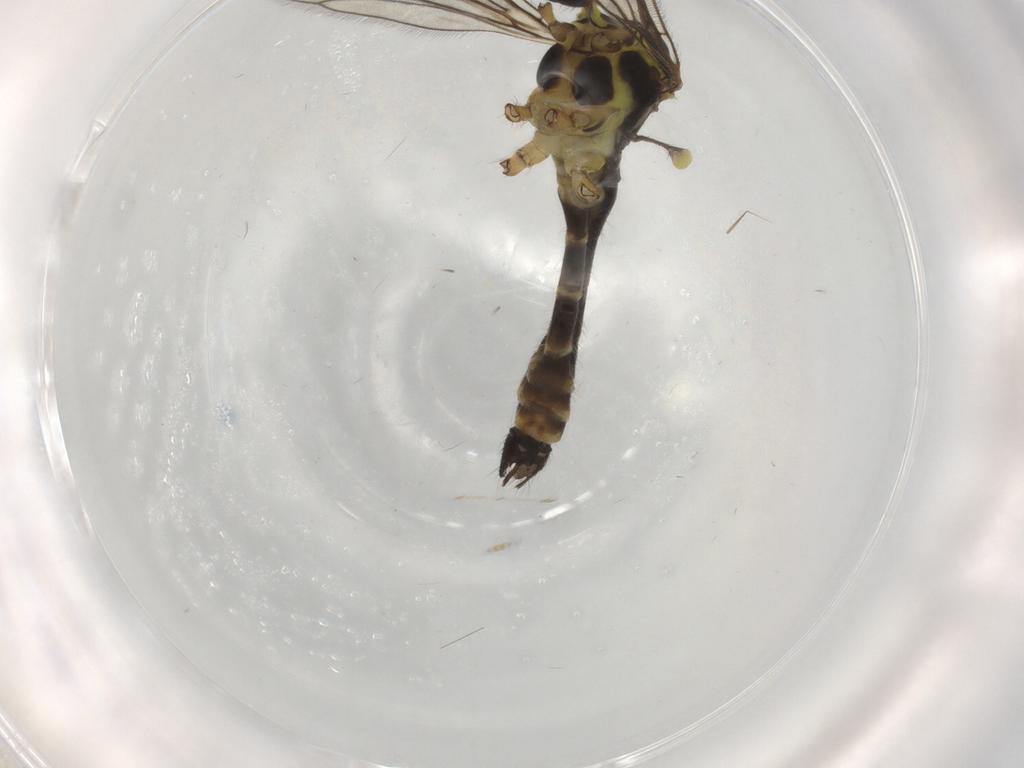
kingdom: Animalia
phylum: Arthropoda
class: Insecta
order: Diptera
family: Limoniidae
